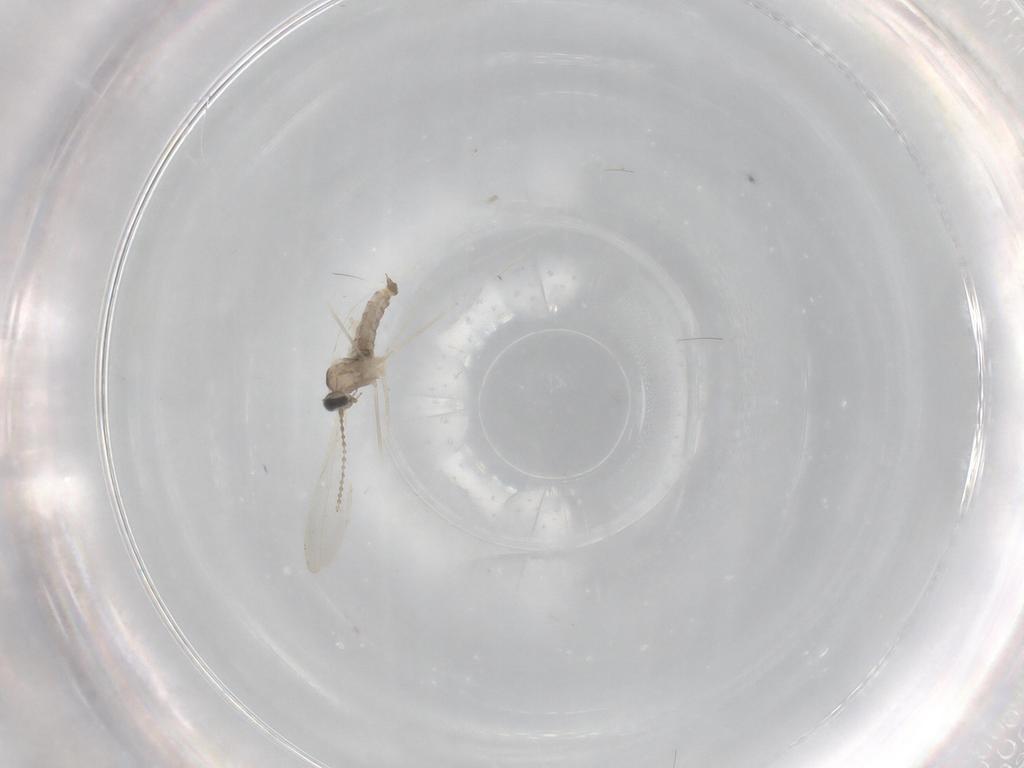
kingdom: Animalia
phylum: Arthropoda
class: Insecta
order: Diptera
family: Cecidomyiidae
